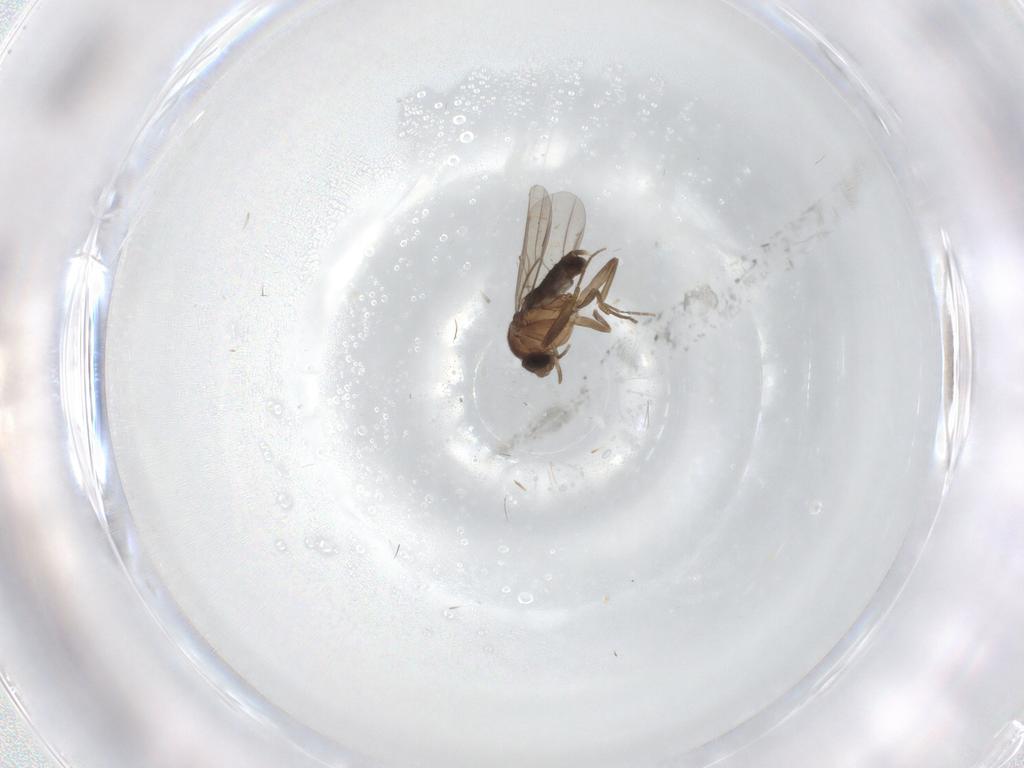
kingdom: Animalia
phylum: Arthropoda
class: Insecta
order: Diptera
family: Phoridae
